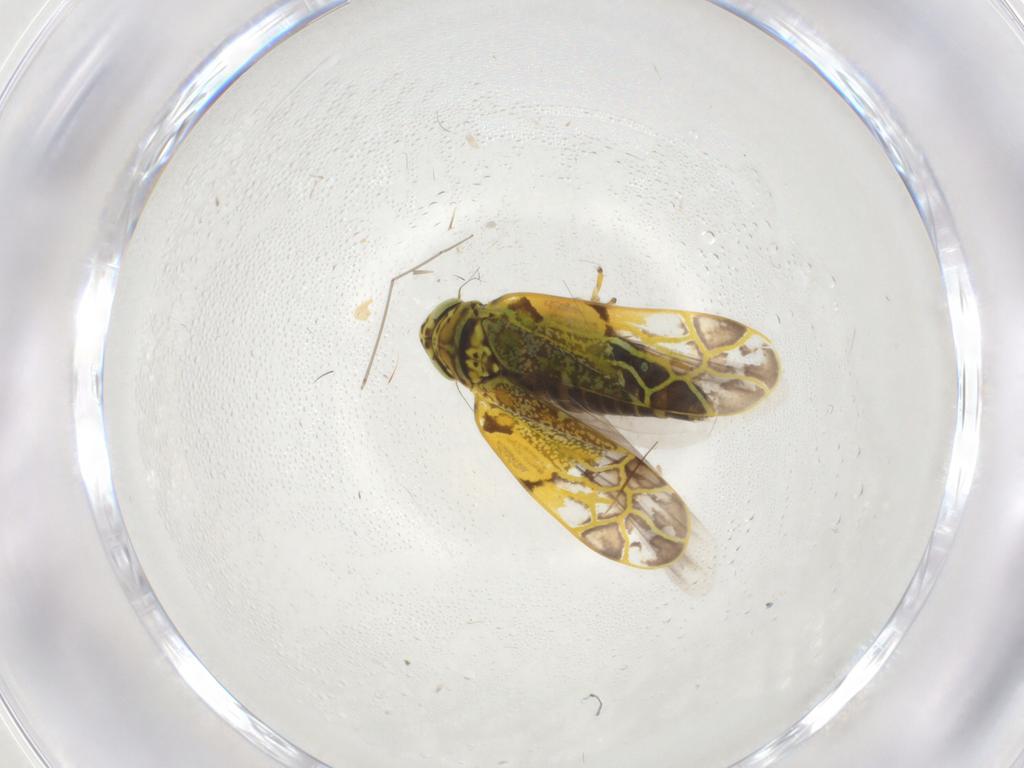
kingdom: Animalia
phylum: Arthropoda
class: Insecta
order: Hemiptera
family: Cicadellidae
